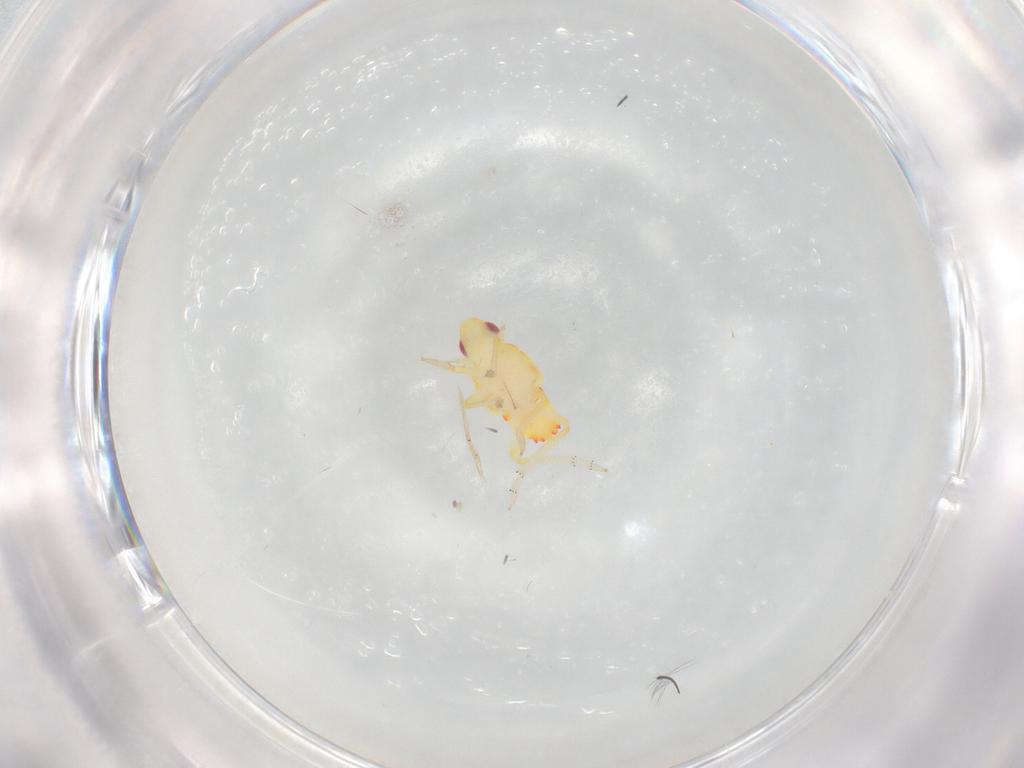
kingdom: Animalia
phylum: Arthropoda
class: Insecta
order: Hemiptera
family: Tropiduchidae
